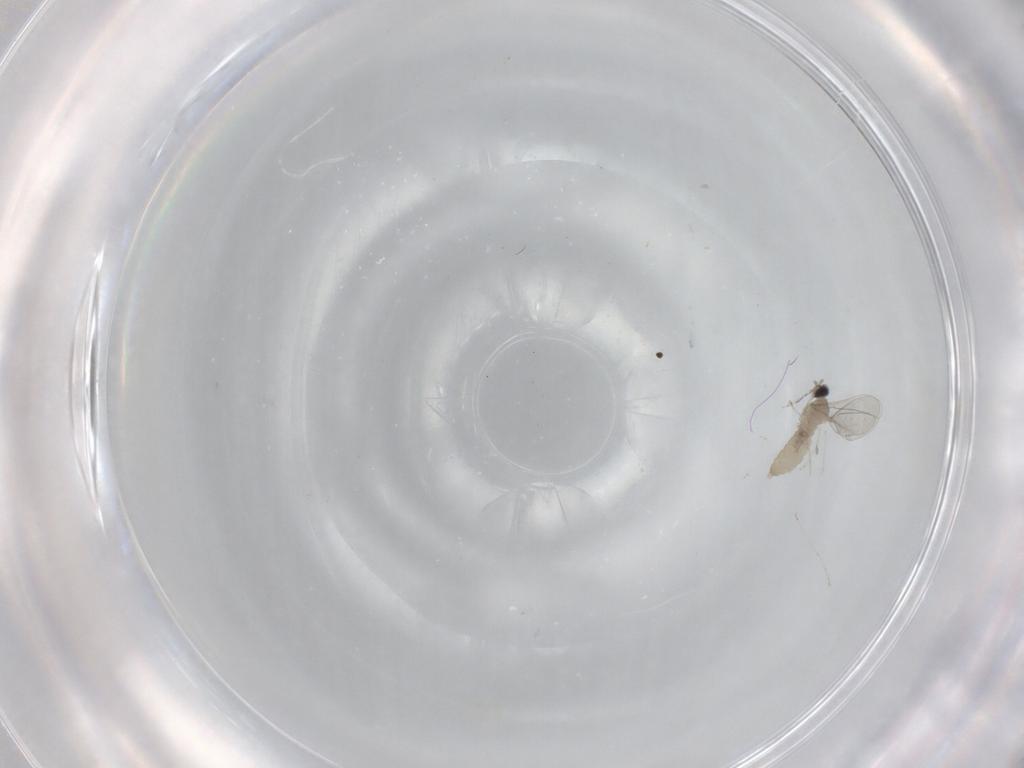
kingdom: Animalia
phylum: Arthropoda
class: Insecta
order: Diptera
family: Cecidomyiidae
